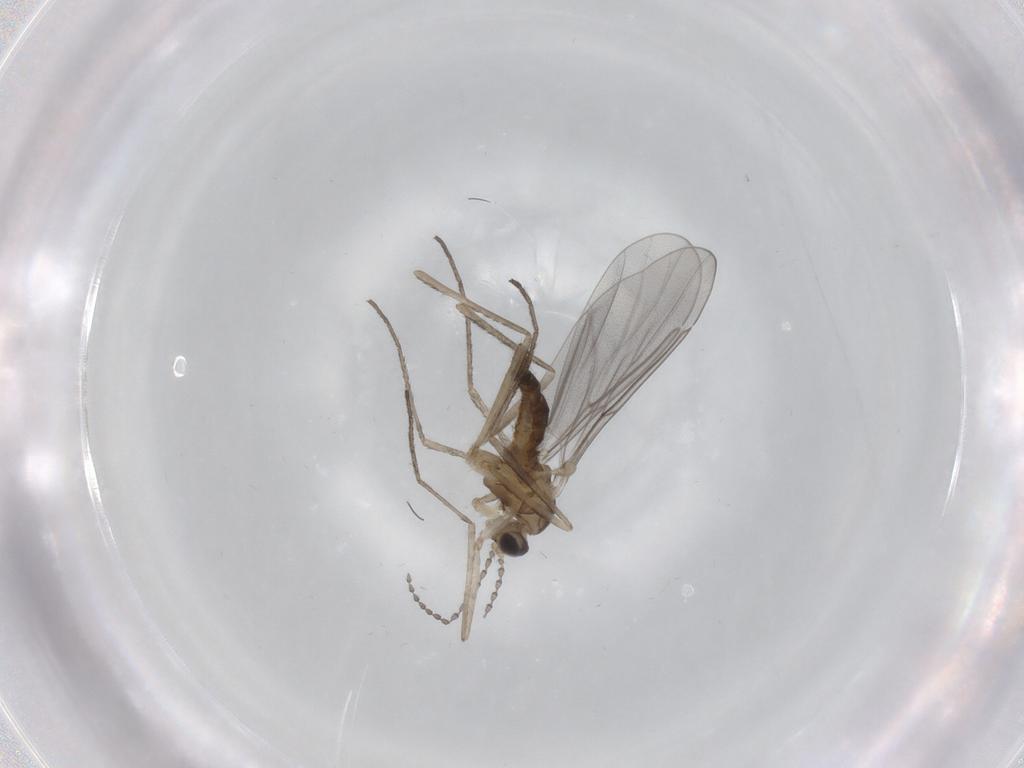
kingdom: Animalia
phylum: Arthropoda
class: Insecta
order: Diptera
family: Cecidomyiidae
